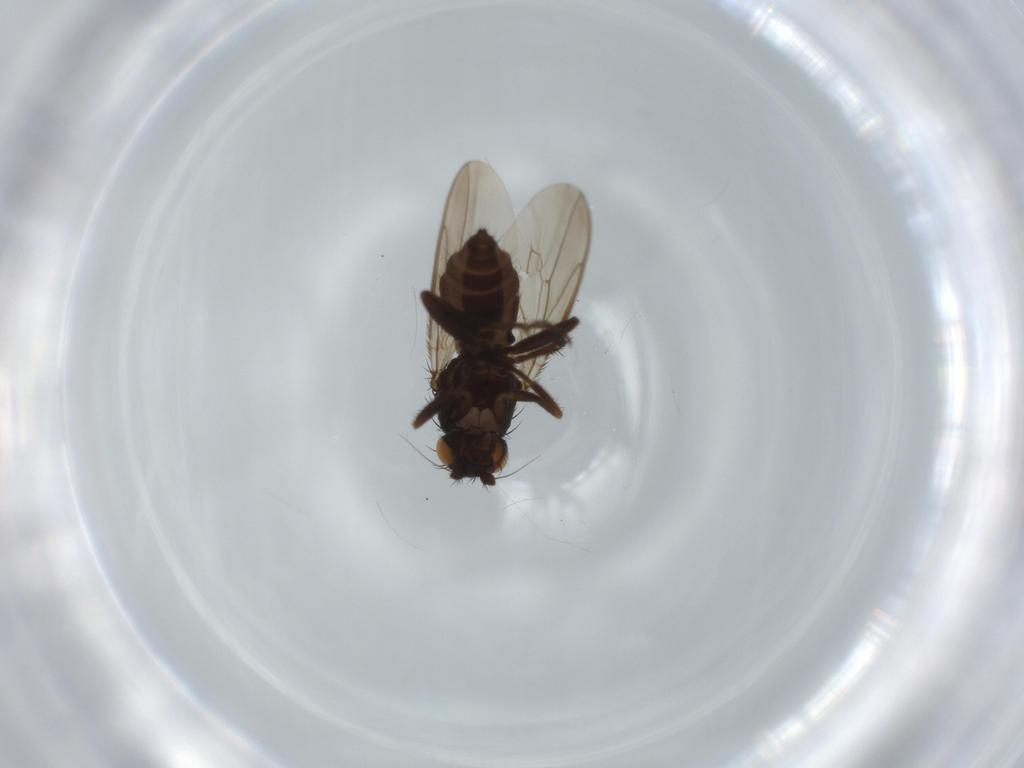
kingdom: Animalia
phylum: Arthropoda
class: Insecta
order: Diptera
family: Sphaeroceridae
